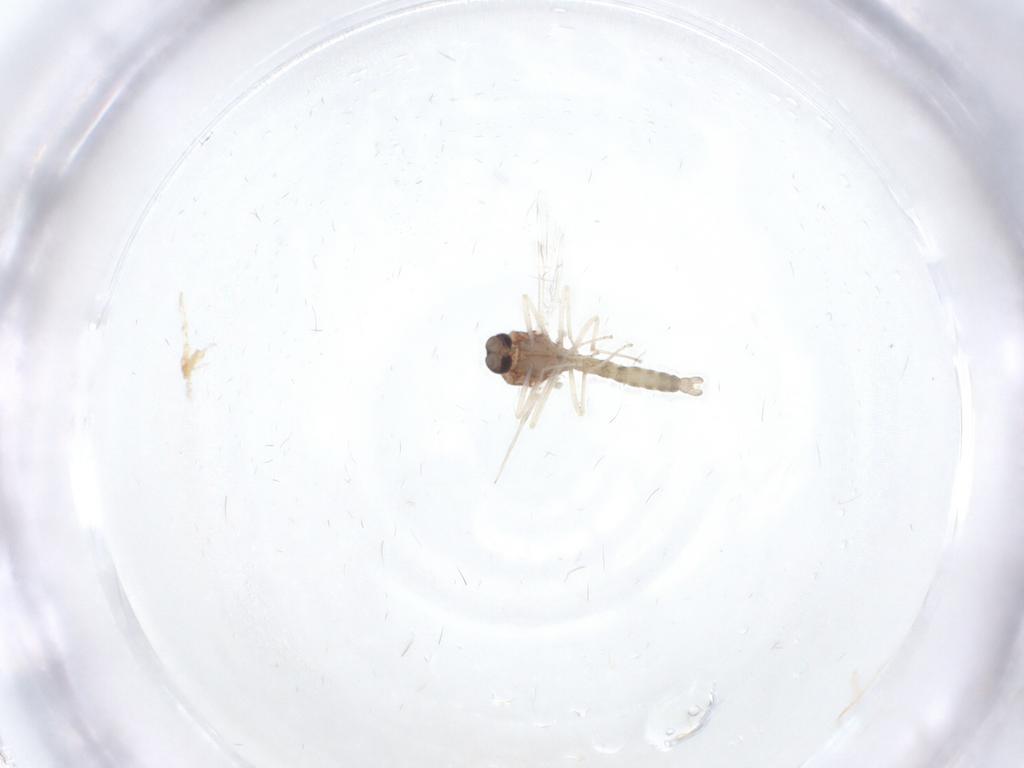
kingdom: Animalia
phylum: Arthropoda
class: Insecta
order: Diptera
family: Ceratopogonidae
